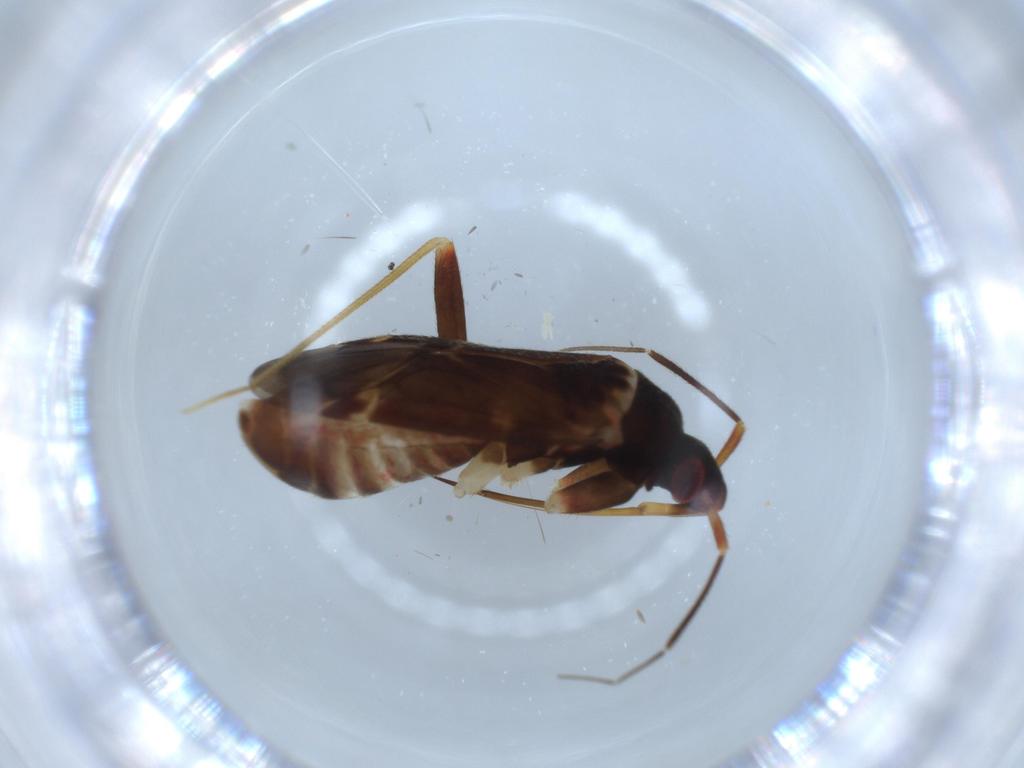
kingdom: Animalia
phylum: Arthropoda
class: Insecta
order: Hemiptera
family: Miridae
